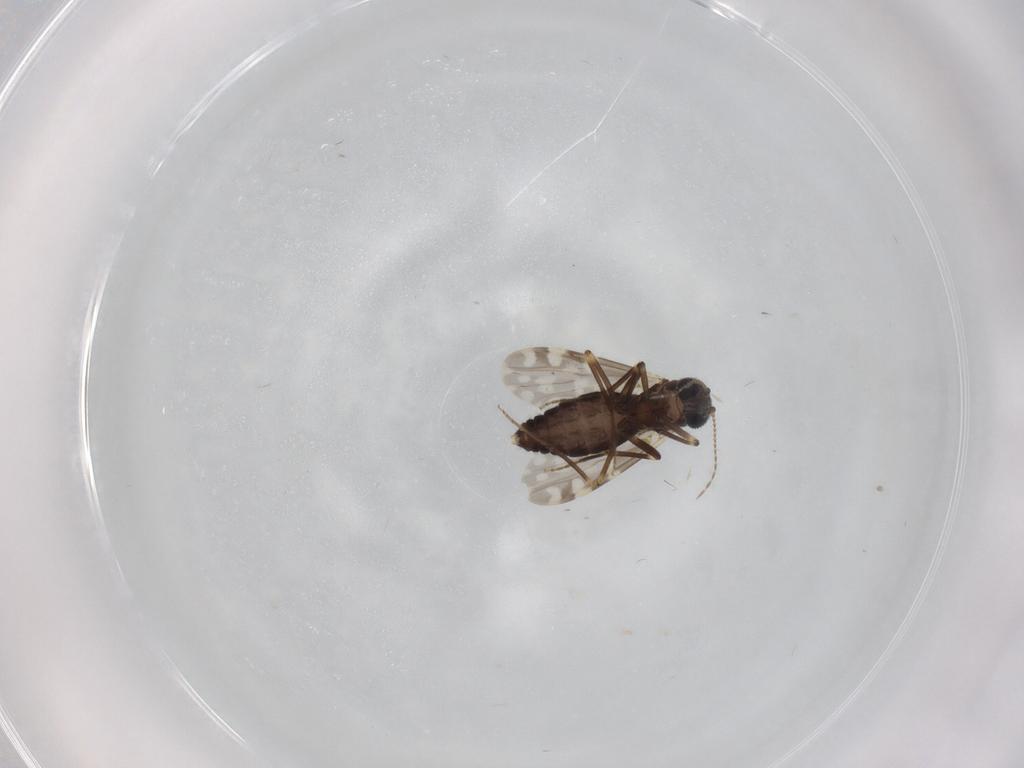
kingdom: Animalia
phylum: Arthropoda
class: Insecta
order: Diptera
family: Ceratopogonidae
